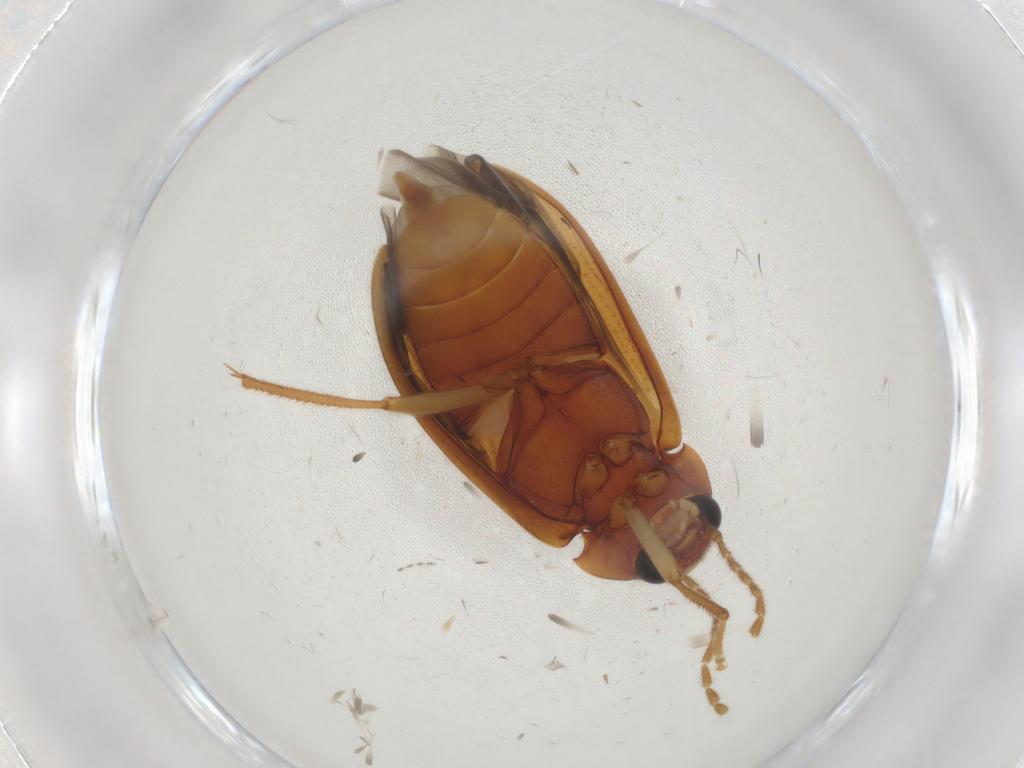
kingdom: Animalia
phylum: Arthropoda
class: Insecta
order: Coleoptera
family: Ptilodactylidae
